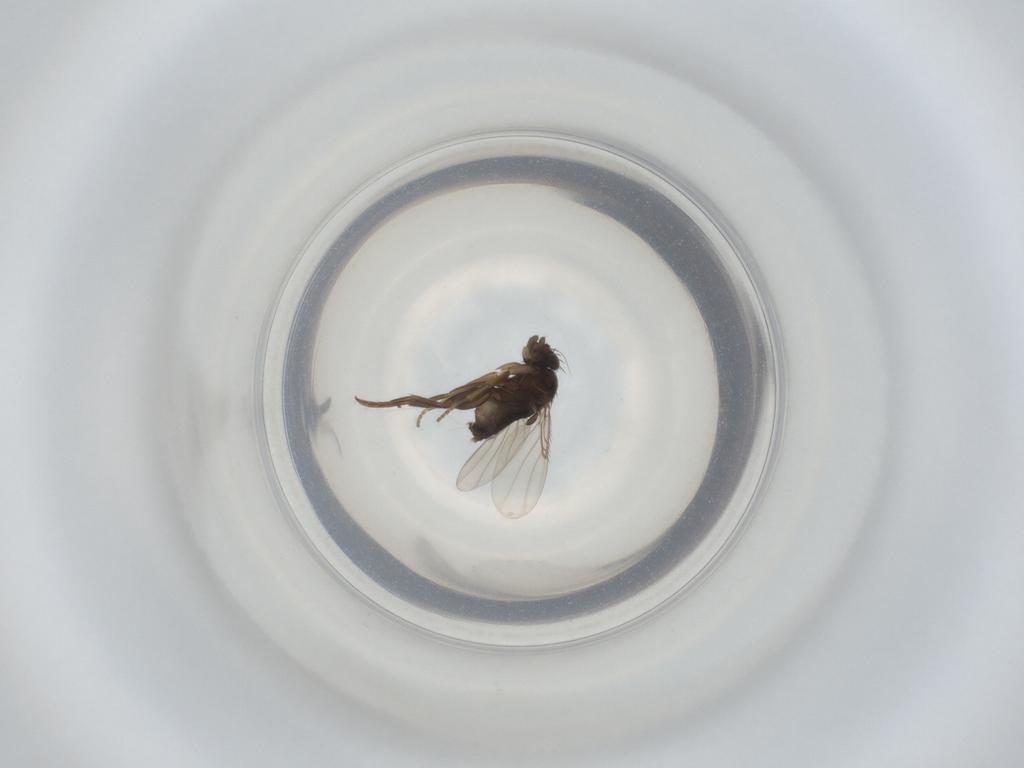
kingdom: Animalia
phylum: Arthropoda
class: Insecta
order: Diptera
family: Phoridae
